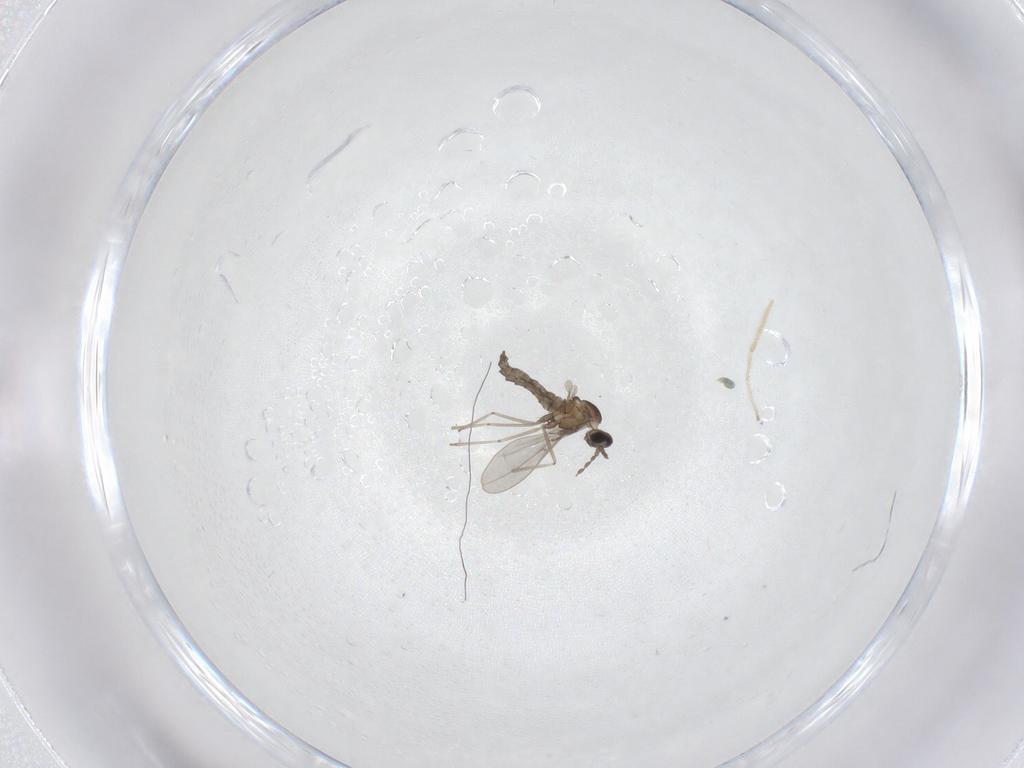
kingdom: Animalia
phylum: Arthropoda
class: Insecta
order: Diptera
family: Cecidomyiidae
